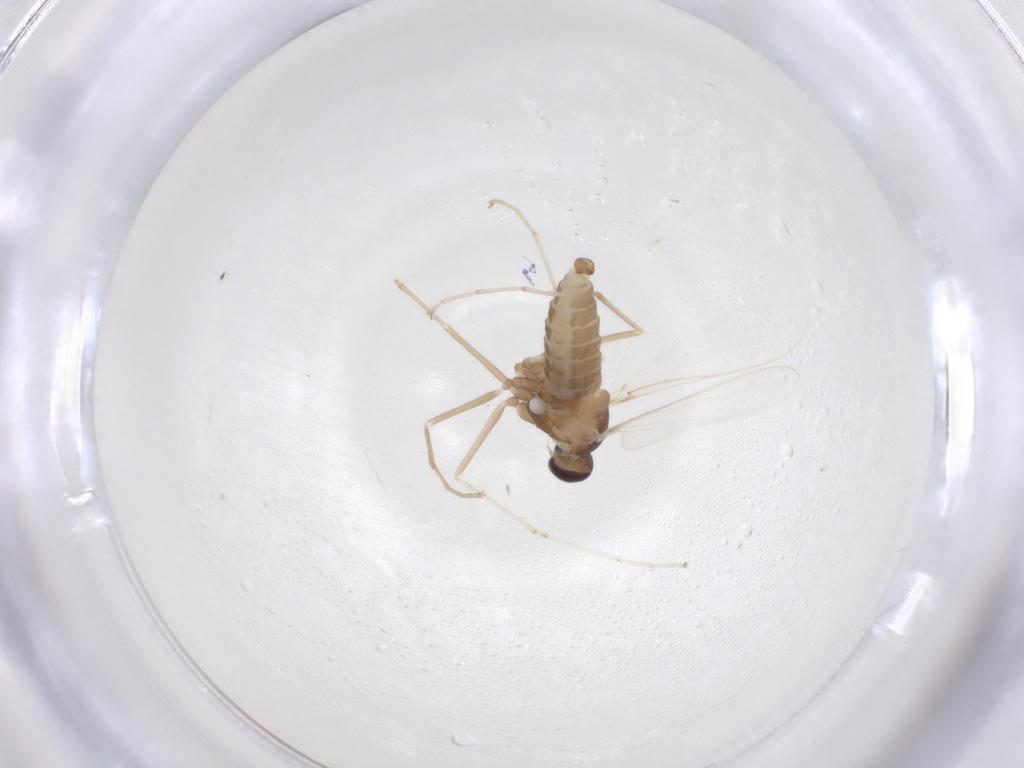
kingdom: Animalia
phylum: Arthropoda
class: Insecta
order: Diptera
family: Cecidomyiidae
